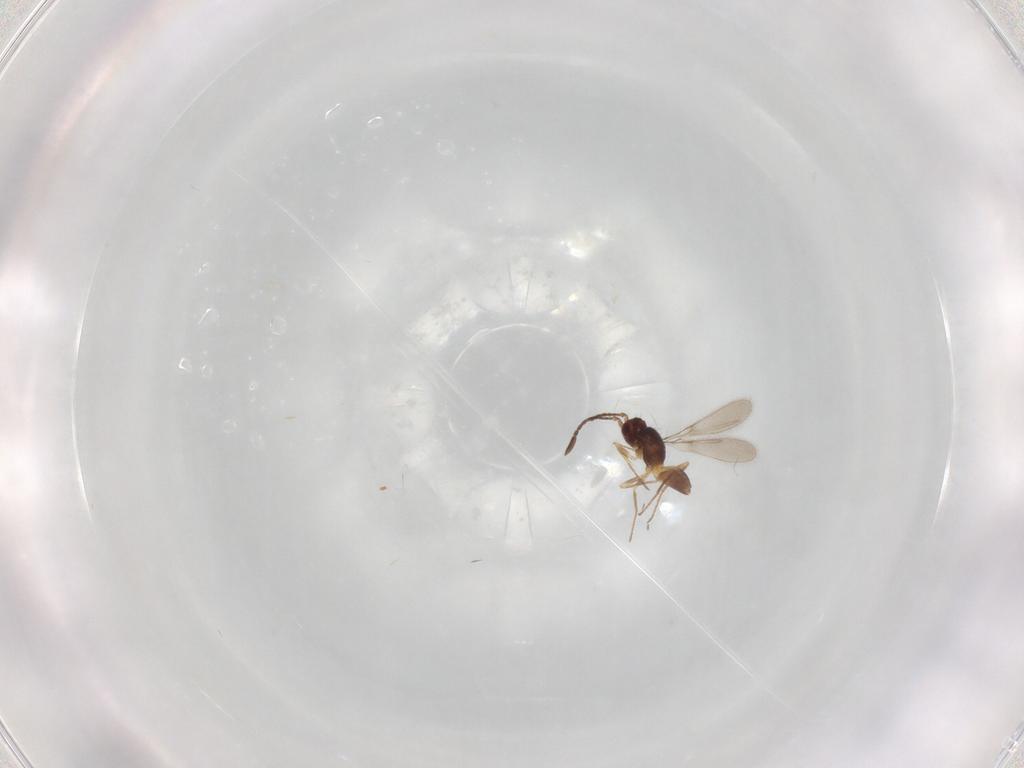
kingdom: Animalia
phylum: Arthropoda
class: Insecta
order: Hymenoptera
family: Mymaridae
